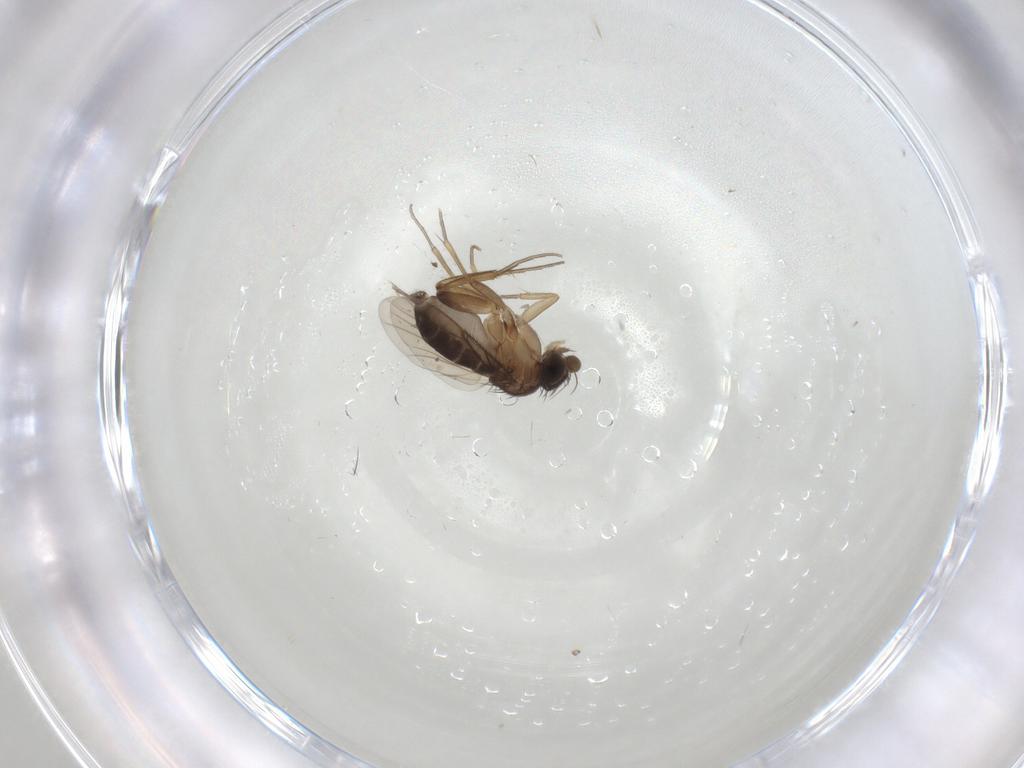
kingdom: Animalia
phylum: Arthropoda
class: Insecta
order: Diptera
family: Phoridae
